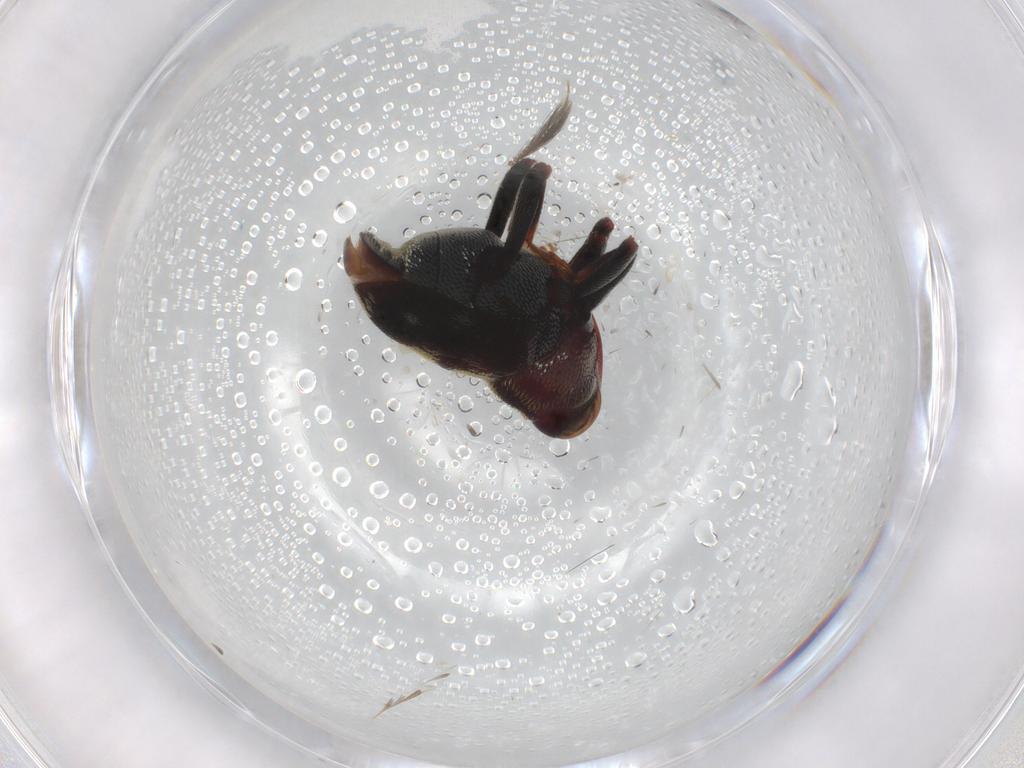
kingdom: Animalia
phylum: Arthropoda
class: Insecta
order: Coleoptera
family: Curculionidae
